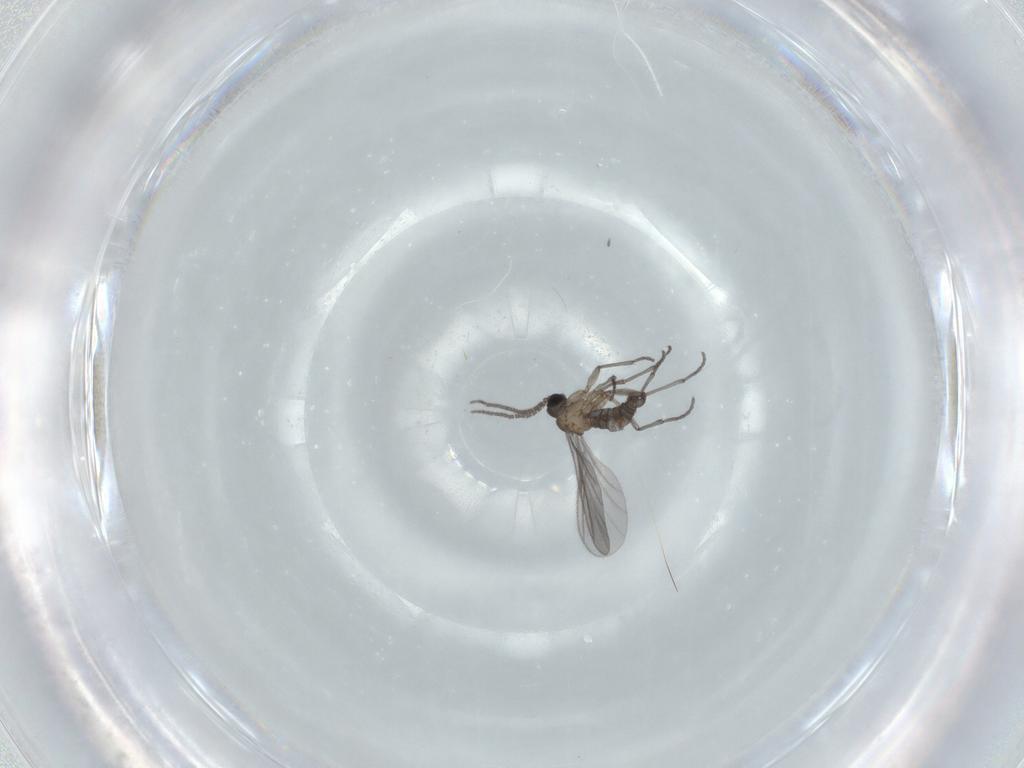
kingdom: Animalia
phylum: Arthropoda
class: Insecta
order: Diptera
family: Sciaridae
